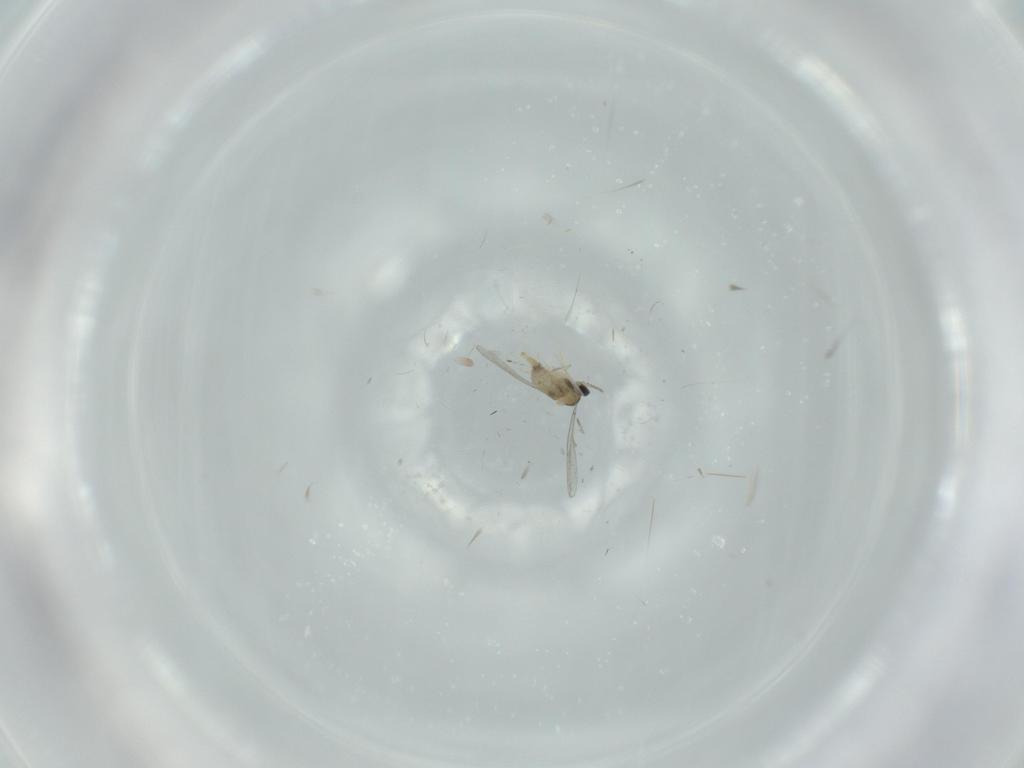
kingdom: Animalia
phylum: Arthropoda
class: Insecta
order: Diptera
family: Cecidomyiidae
